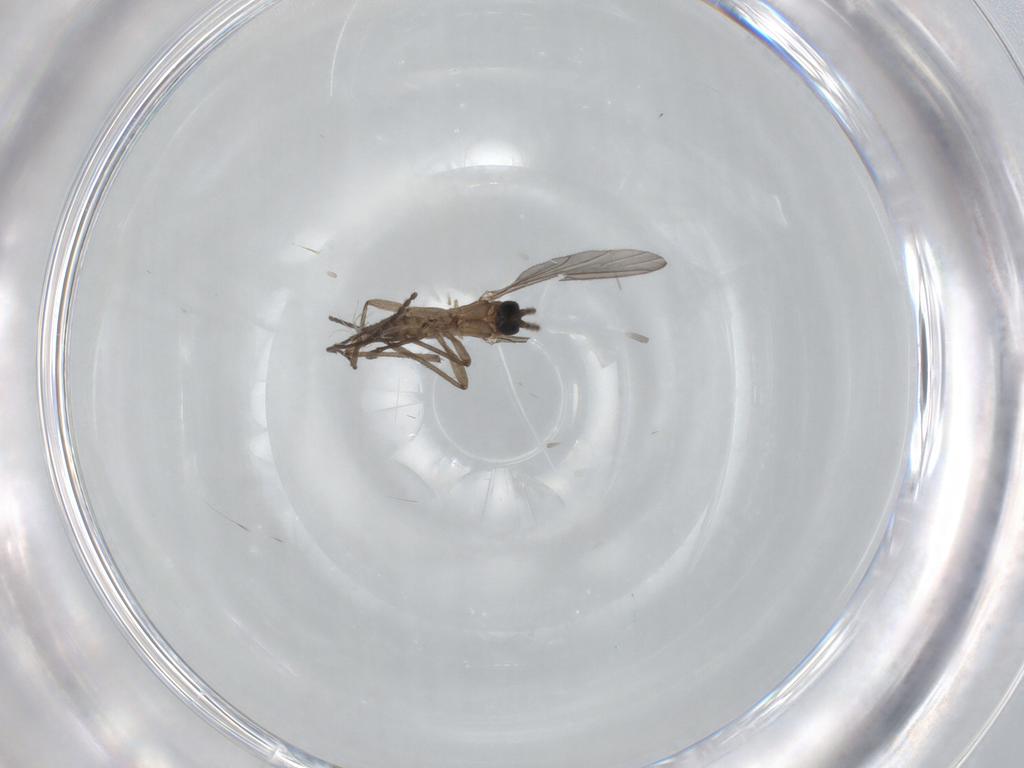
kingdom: Animalia
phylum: Arthropoda
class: Insecta
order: Diptera
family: Sciaridae
